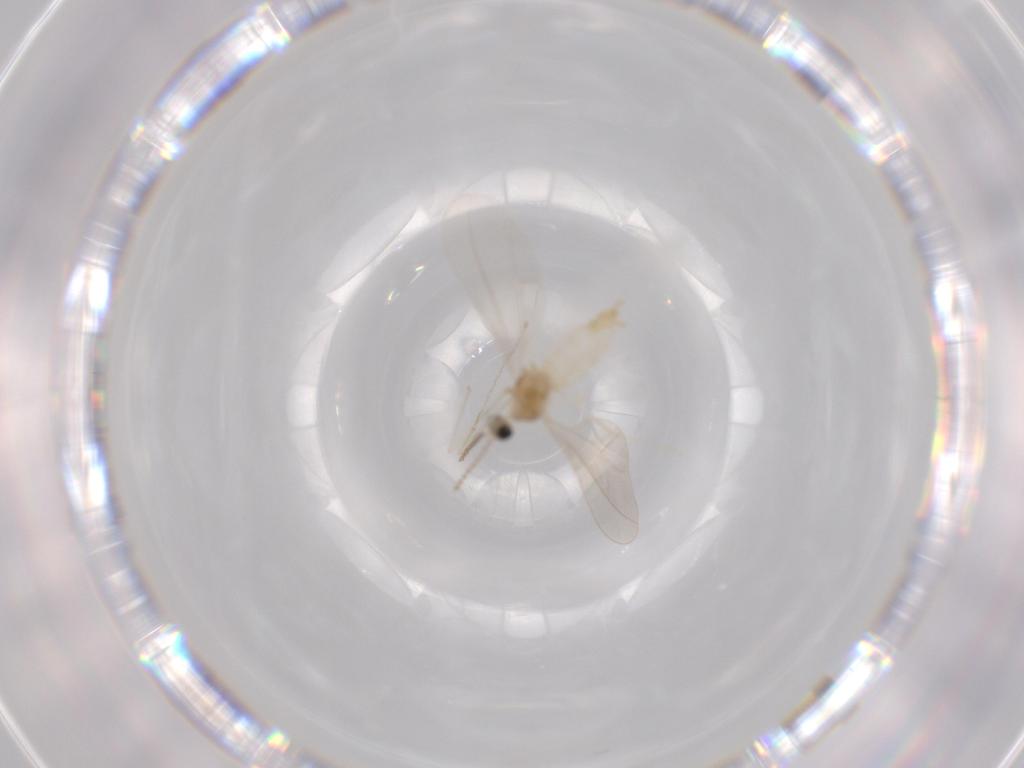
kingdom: Animalia
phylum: Arthropoda
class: Insecta
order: Diptera
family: Cecidomyiidae
